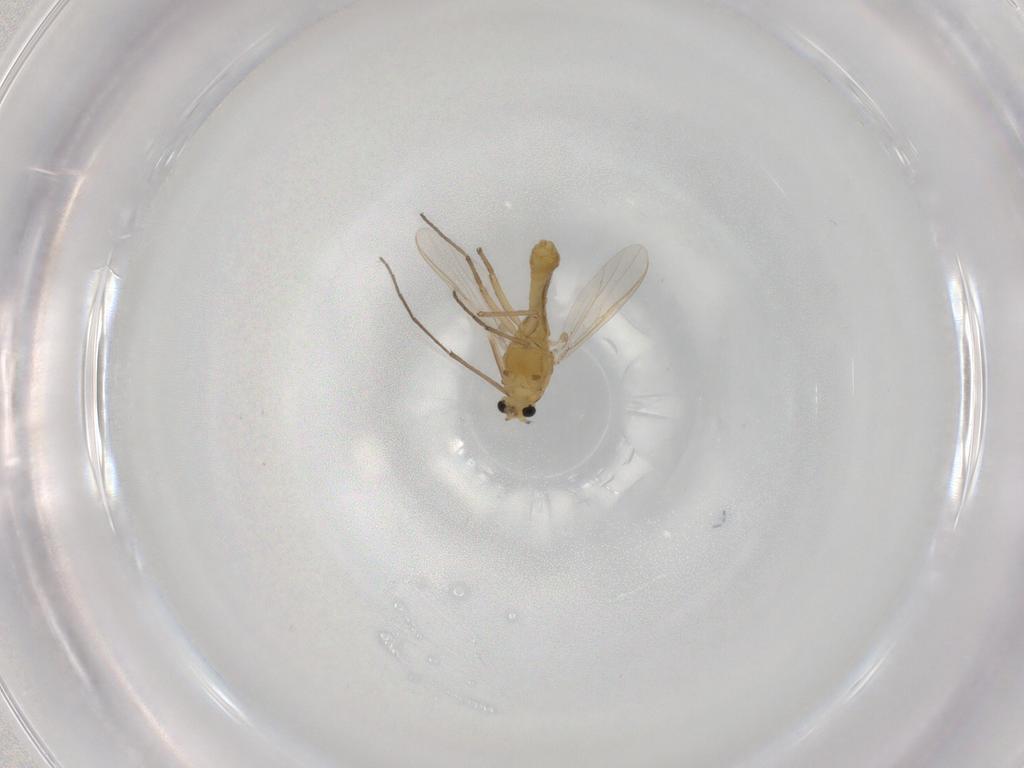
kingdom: Animalia
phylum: Arthropoda
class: Insecta
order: Diptera
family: Chironomidae
